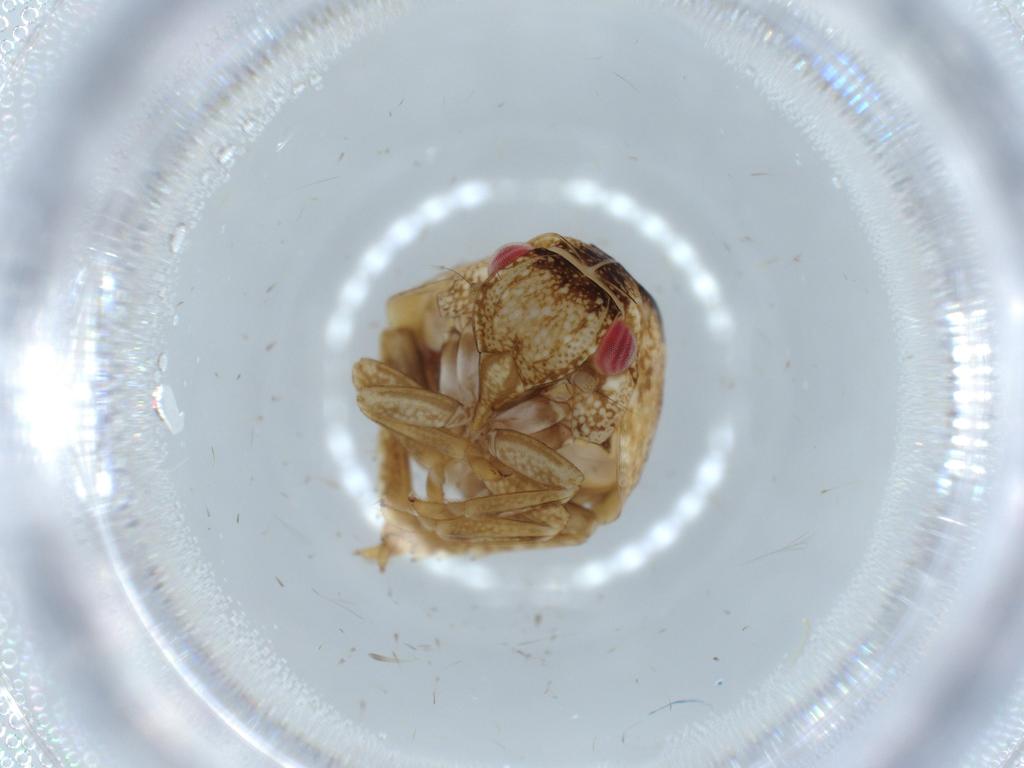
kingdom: Animalia
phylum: Arthropoda
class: Insecta
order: Hemiptera
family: Acanaloniidae
